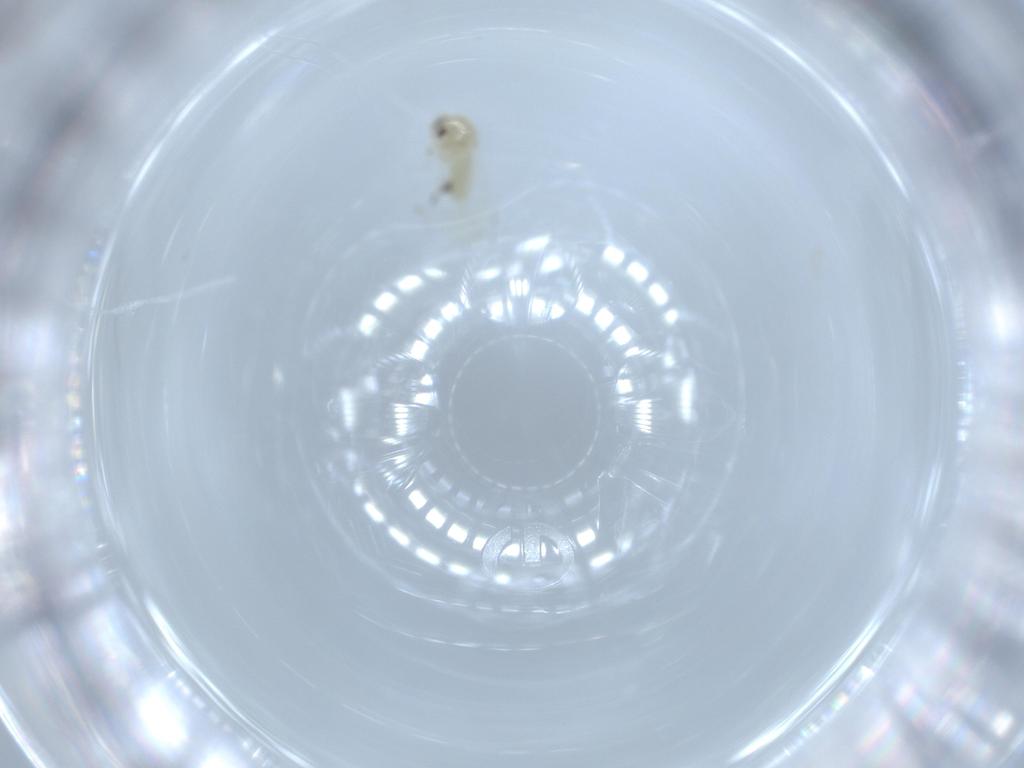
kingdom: Animalia
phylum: Arthropoda
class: Insecta
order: Hemiptera
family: Aleyrodidae
